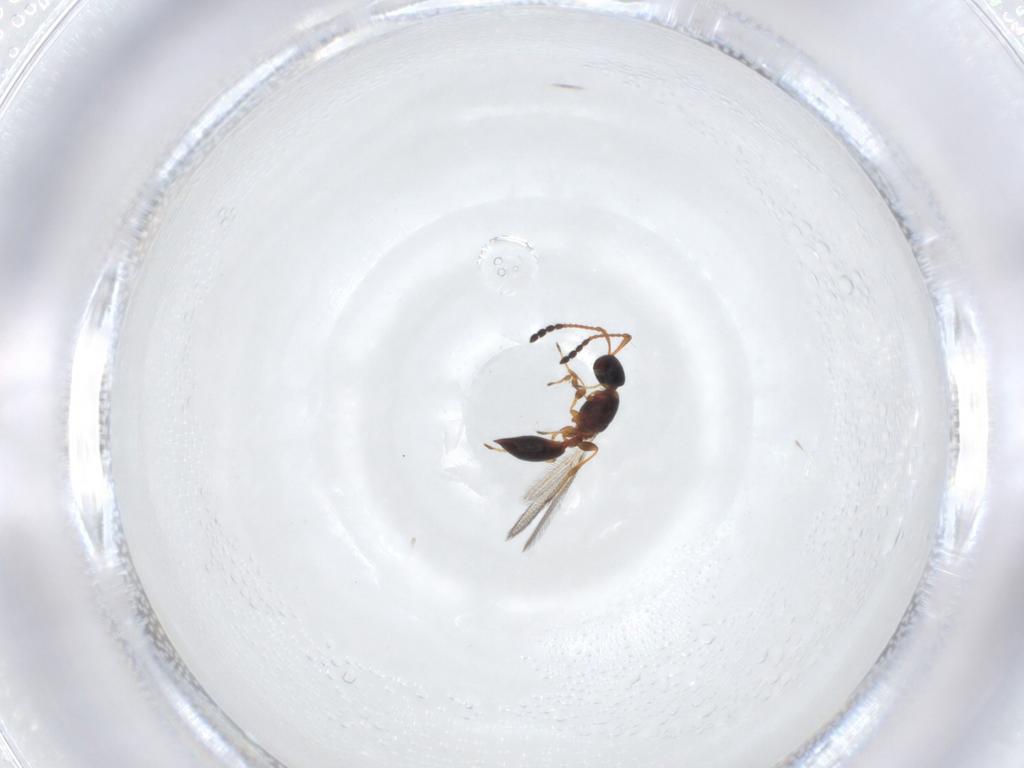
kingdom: Animalia
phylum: Arthropoda
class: Insecta
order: Hymenoptera
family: Diapriidae
